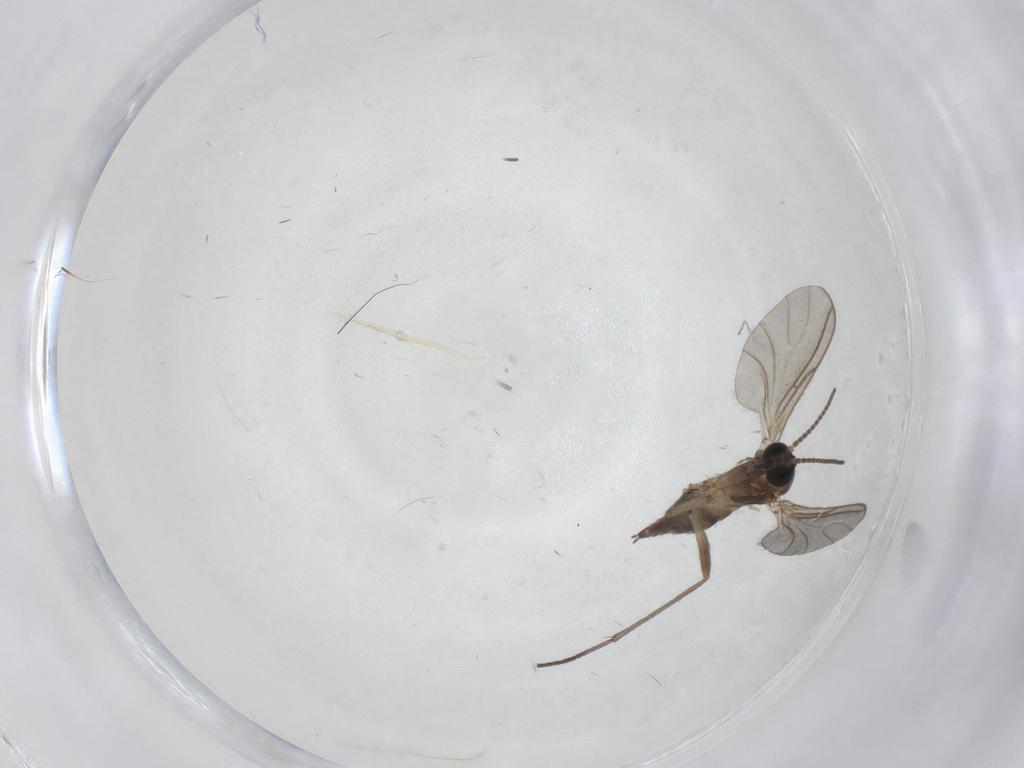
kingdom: Animalia
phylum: Arthropoda
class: Insecta
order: Diptera
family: Sciaridae
